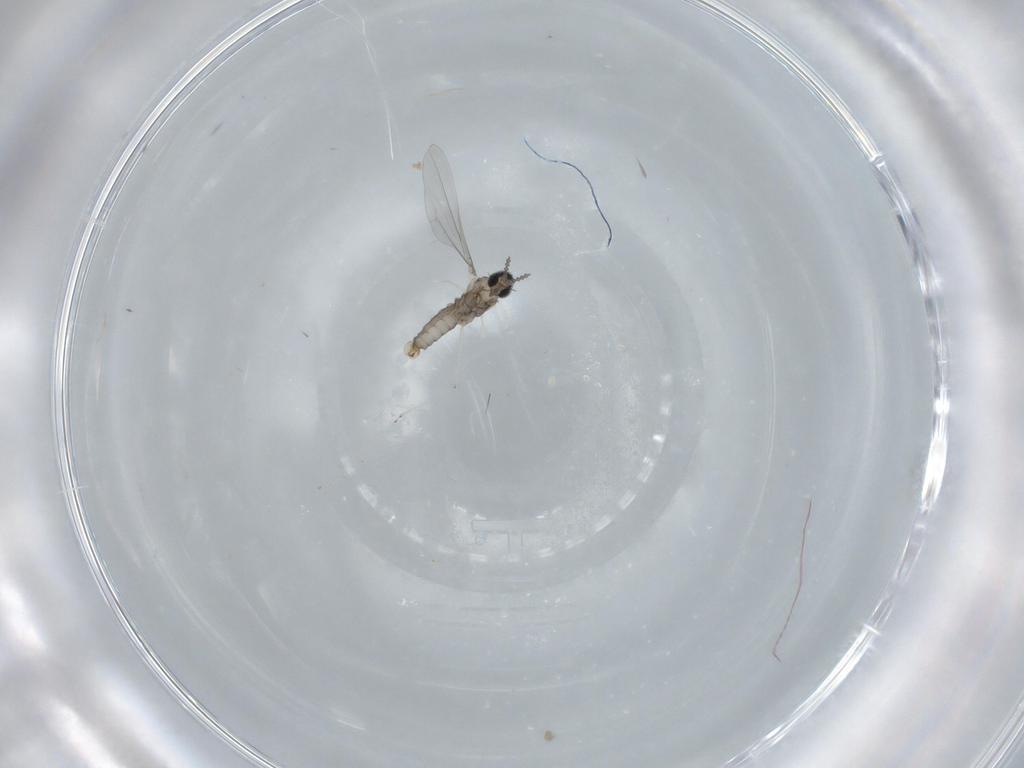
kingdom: Animalia
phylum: Arthropoda
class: Insecta
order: Diptera
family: Cecidomyiidae
